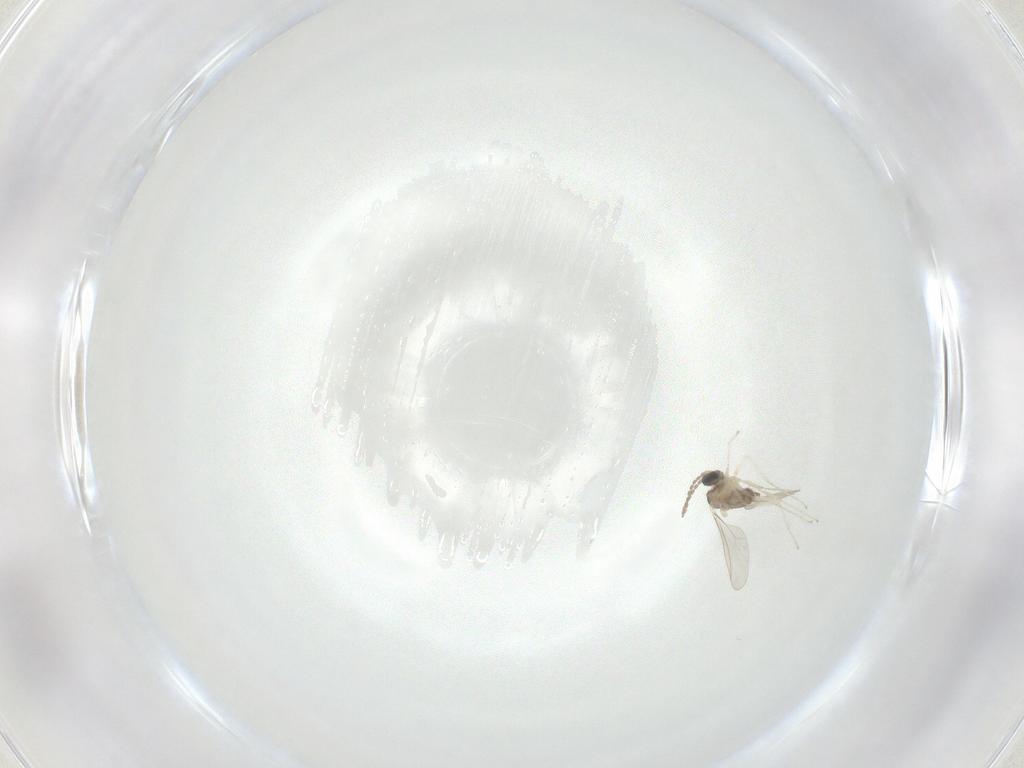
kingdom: Animalia
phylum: Arthropoda
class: Insecta
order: Diptera
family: Cecidomyiidae
